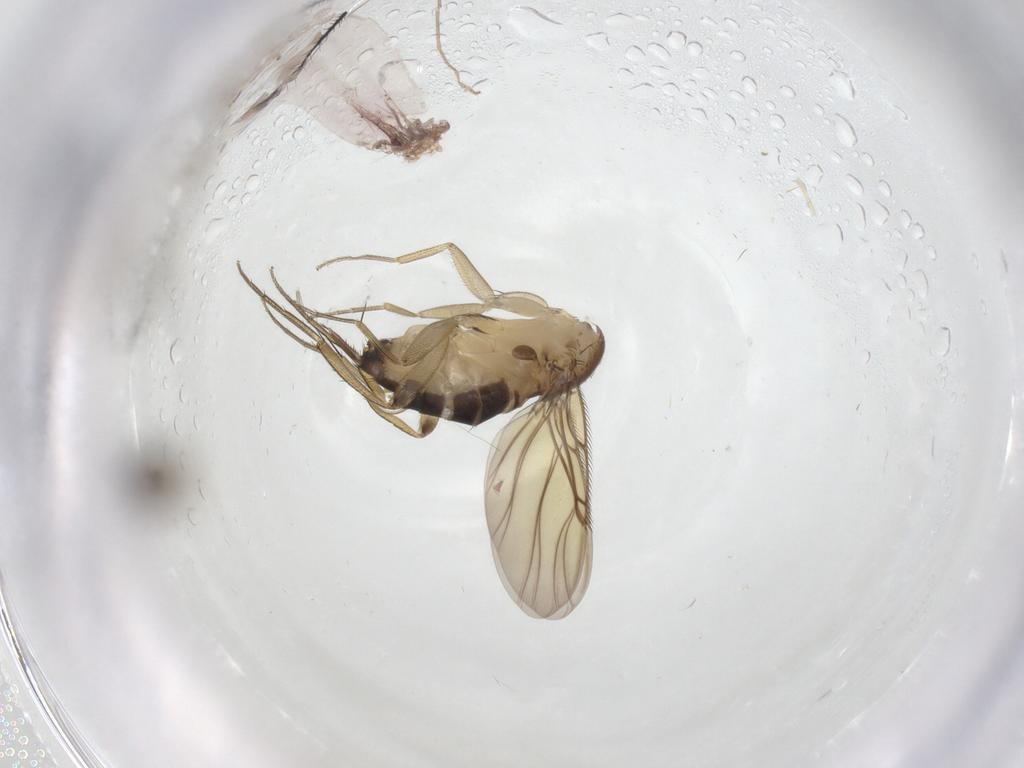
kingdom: Animalia
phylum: Arthropoda
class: Insecta
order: Diptera
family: Phoridae
